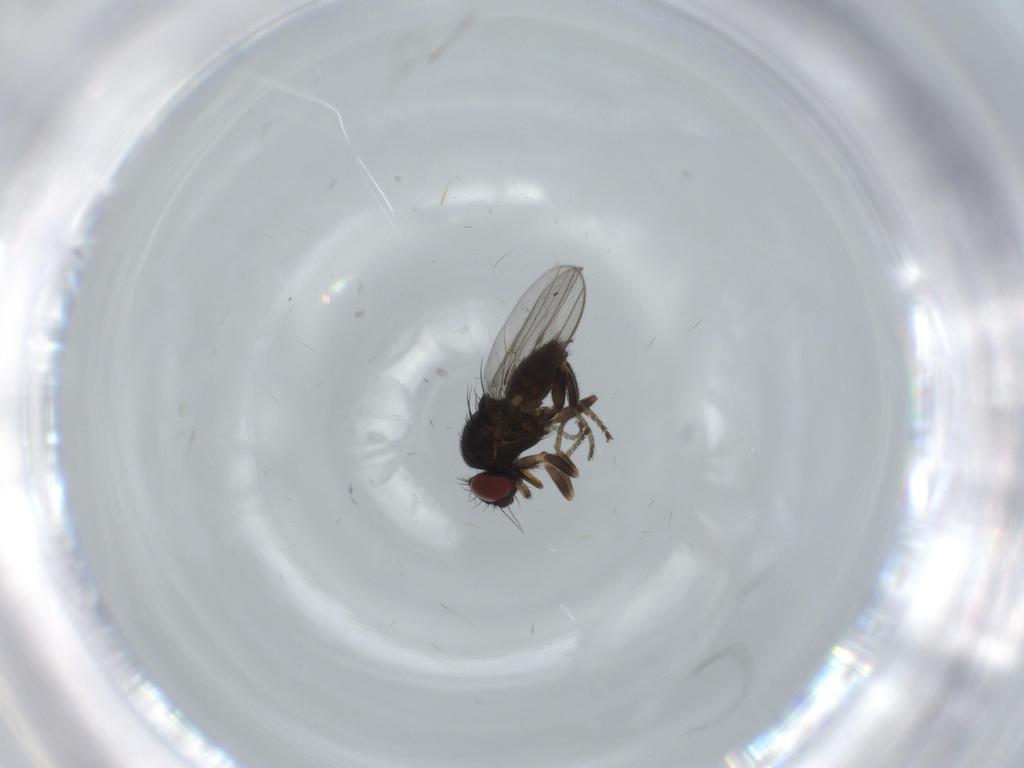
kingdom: Animalia
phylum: Arthropoda
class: Insecta
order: Diptera
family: Milichiidae
